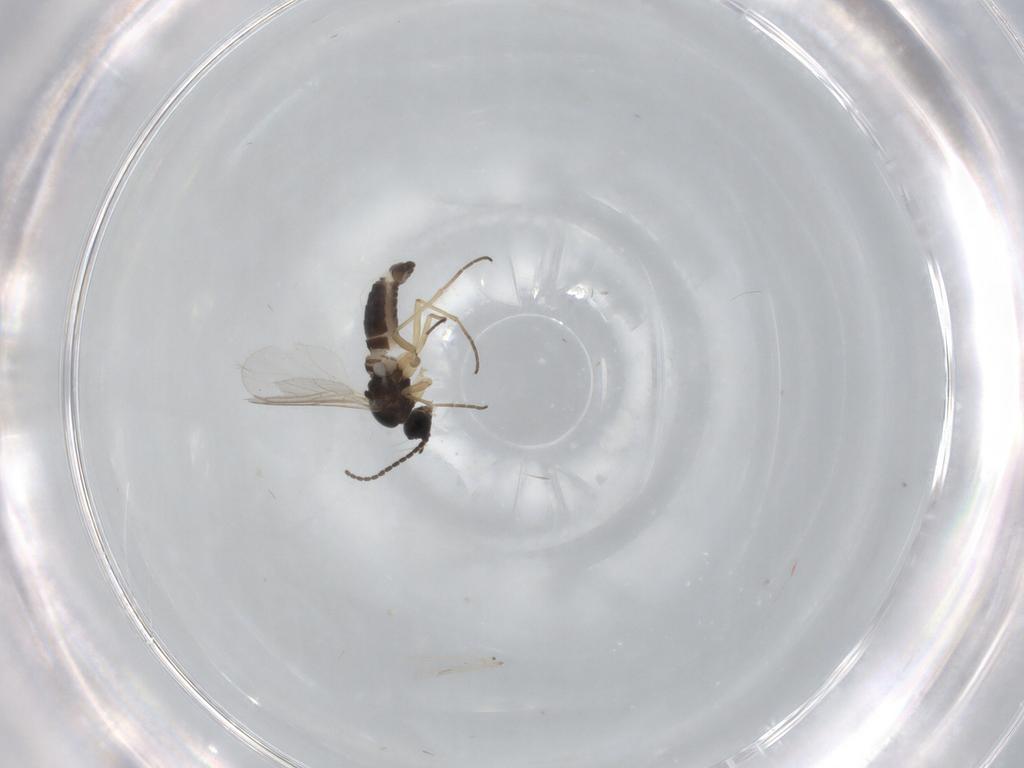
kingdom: Animalia
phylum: Arthropoda
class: Insecta
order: Diptera
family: Sciaridae
